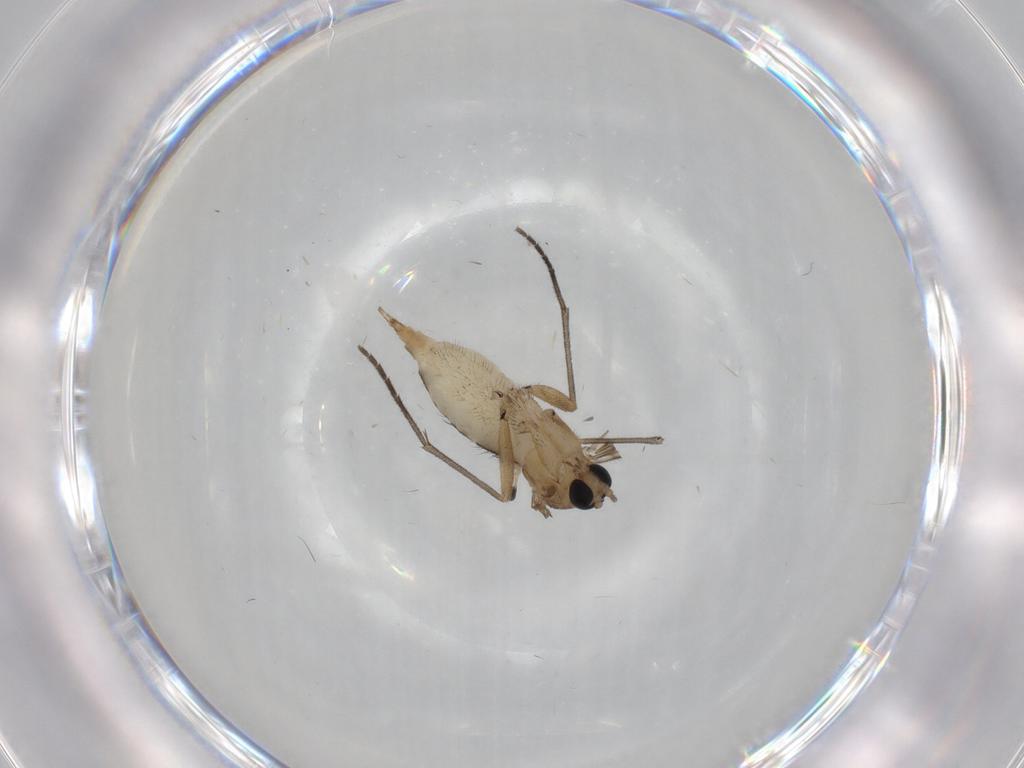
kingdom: Animalia
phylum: Arthropoda
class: Insecta
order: Diptera
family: Sciaridae
